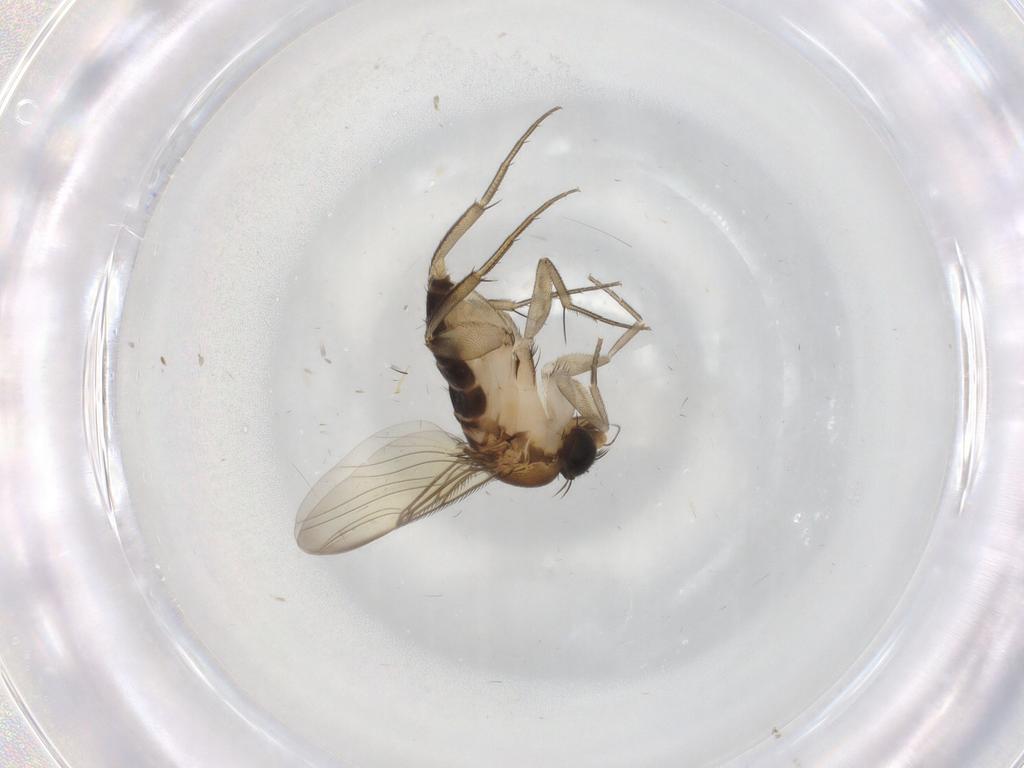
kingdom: Animalia
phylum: Arthropoda
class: Insecta
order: Diptera
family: Phoridae
